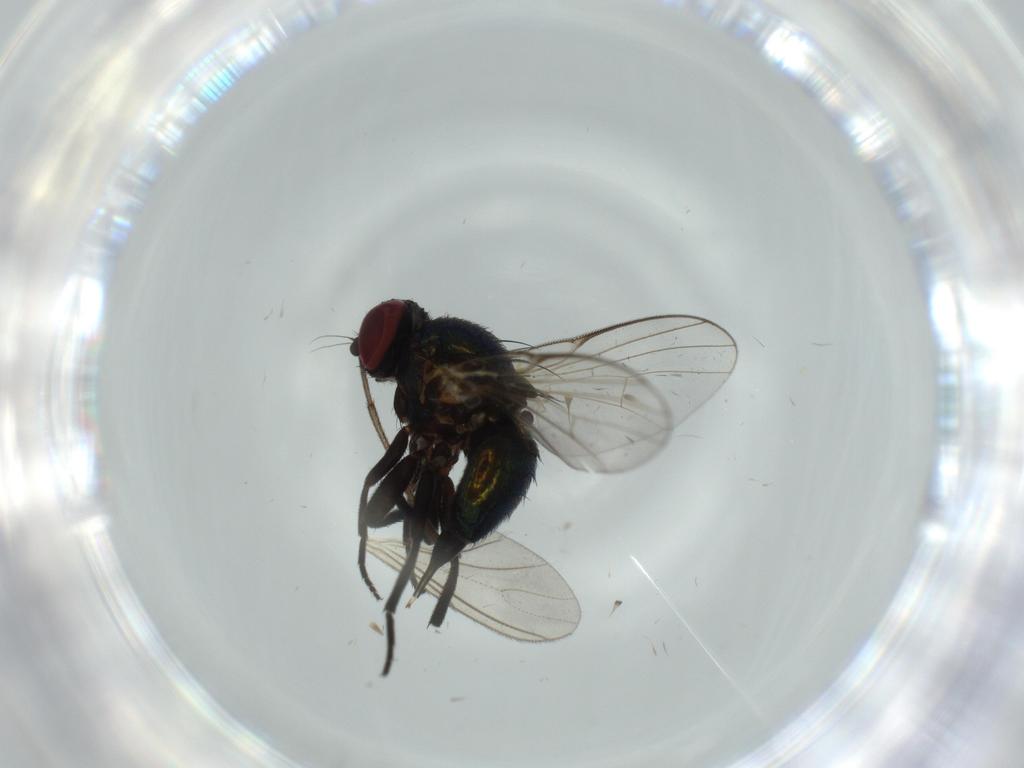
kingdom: Animalia
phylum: Arthropoda
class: Insecta
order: Diptera
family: Agromyzidae
